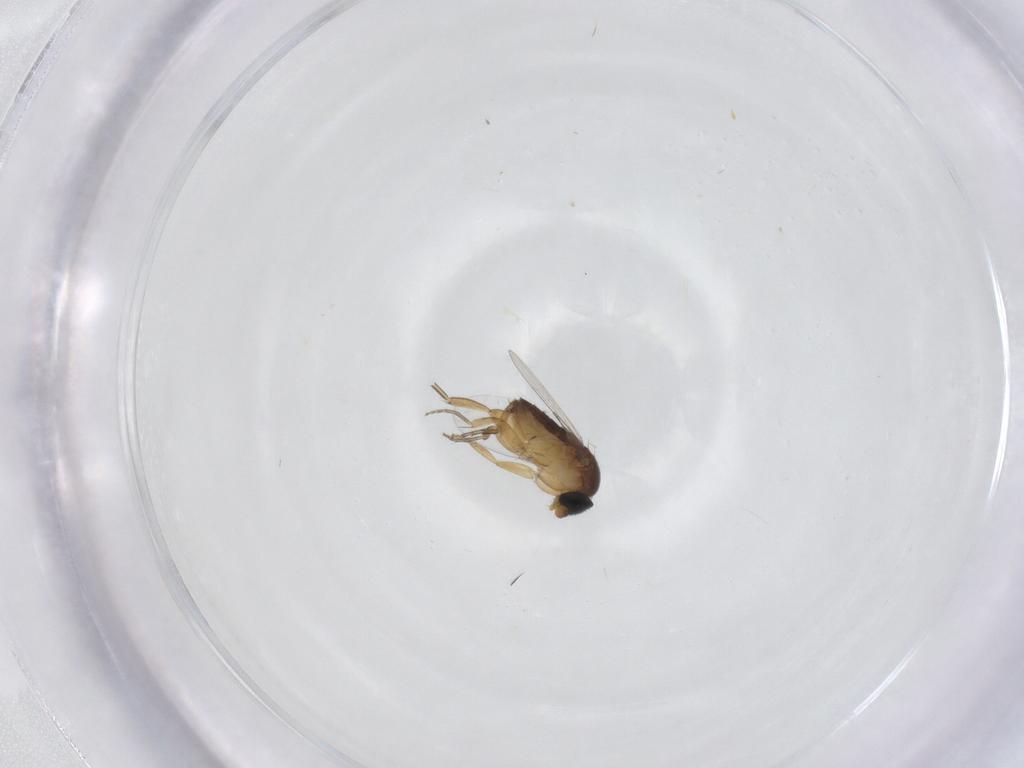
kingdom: Animalia
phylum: Arthropoda
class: Insecta
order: Diptera
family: Phoridae
